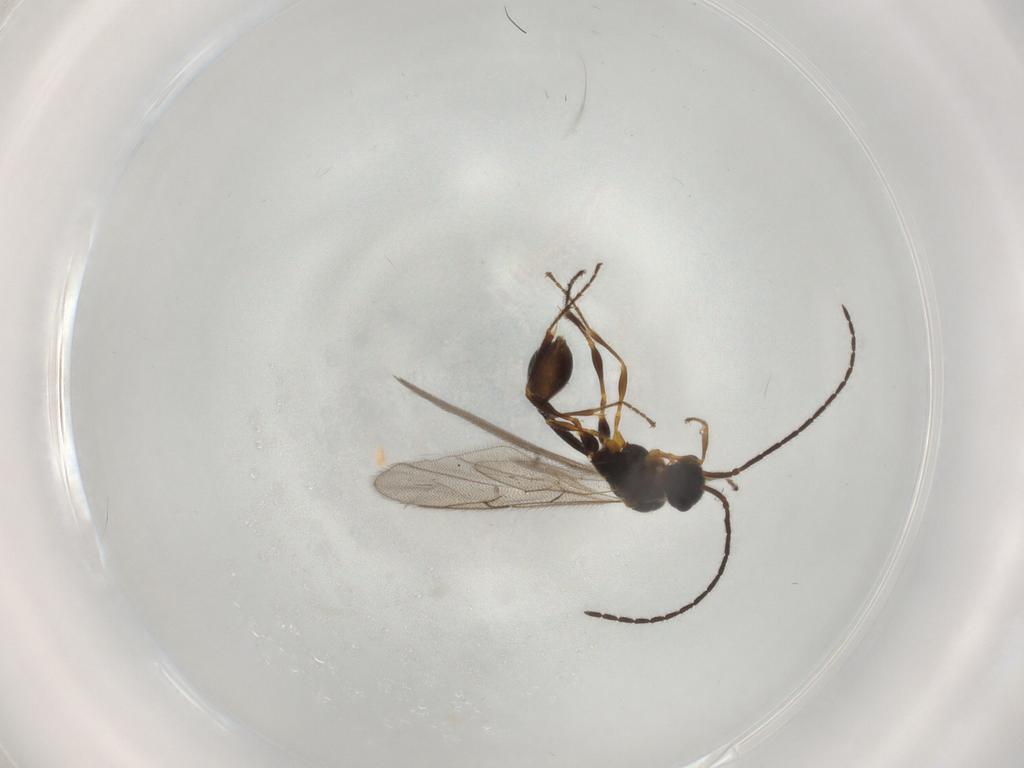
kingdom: Animalia
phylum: Arthropoda
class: Insecta
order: Hymenoptera
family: Diapriidae
